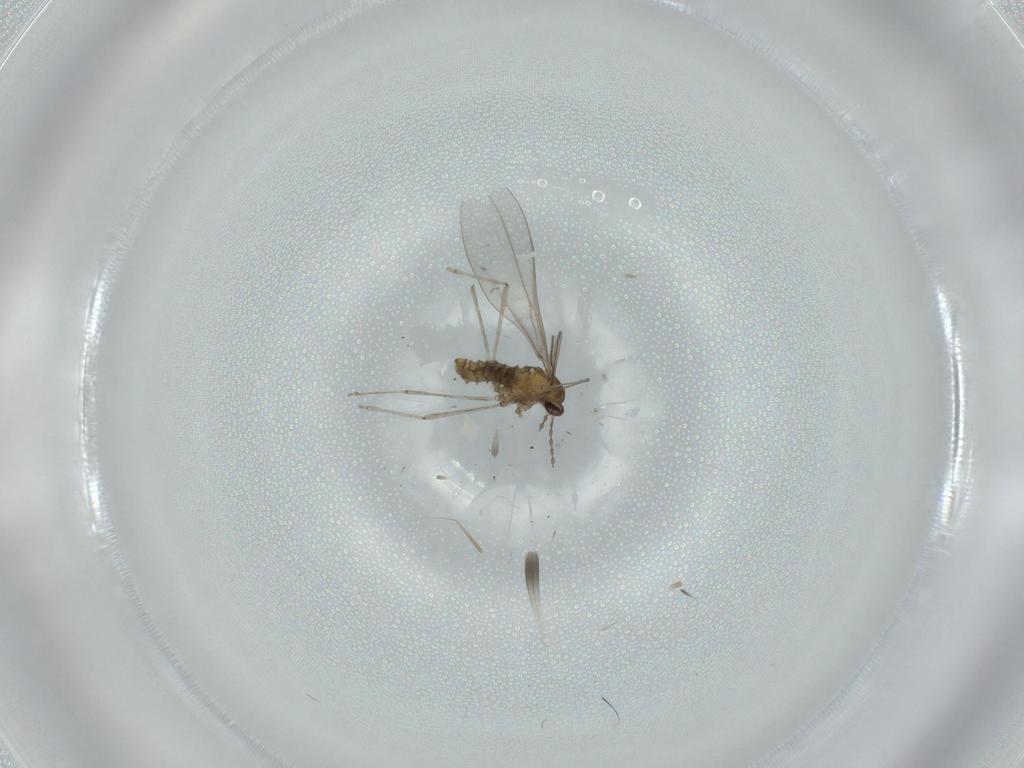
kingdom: Animalia
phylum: Arthropoda
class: Insecta
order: Diptera
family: Chironomidae
